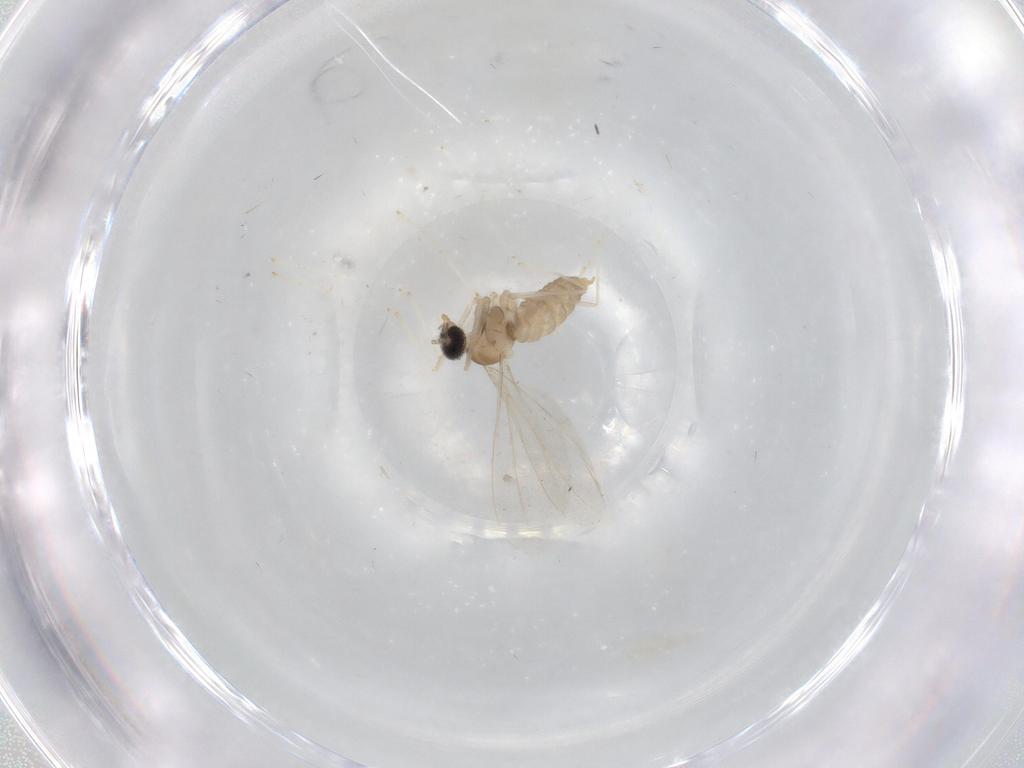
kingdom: Animalia
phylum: Arthropoda
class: Insecta
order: Diptera
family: Cecidomyiidae
